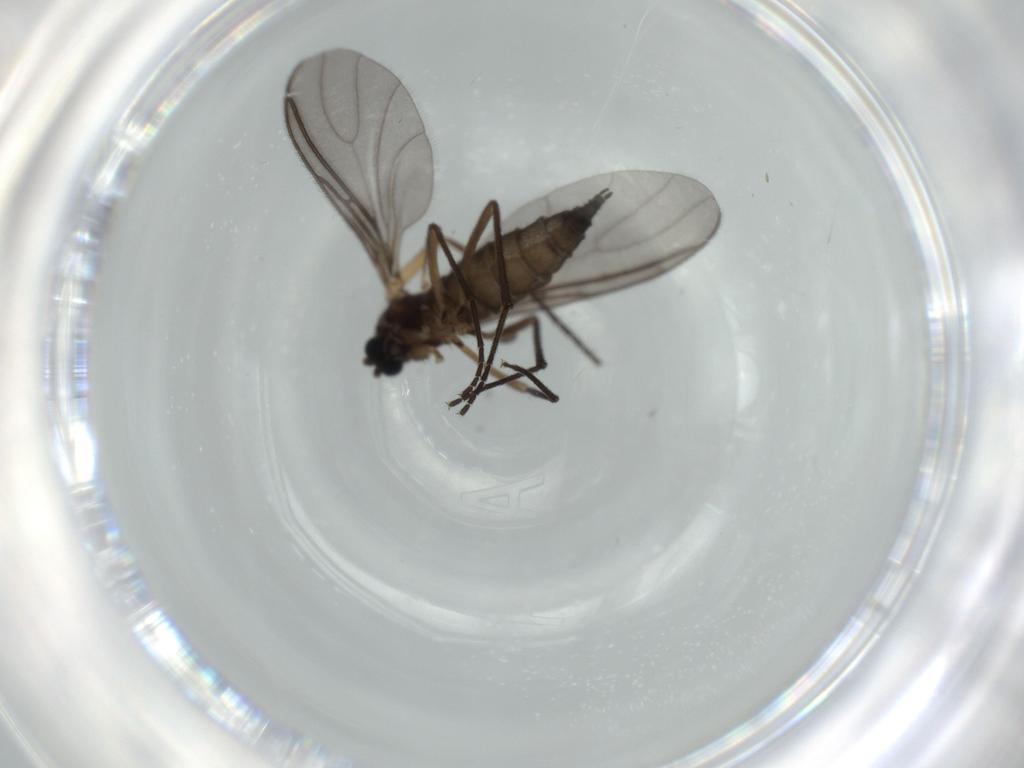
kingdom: Animalia
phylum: Arthropoda
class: Insecta
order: Diptera
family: Sciaridae
